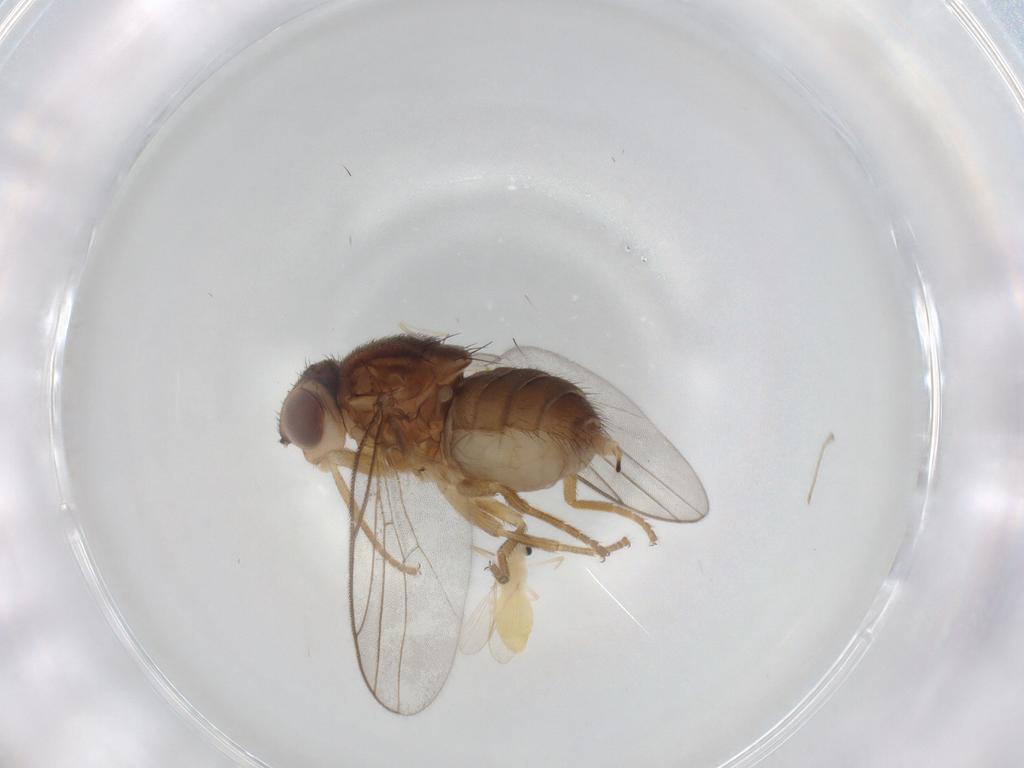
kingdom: Animalia
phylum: Arthropoda
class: Insecta
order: Diptera
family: Chloropidae
